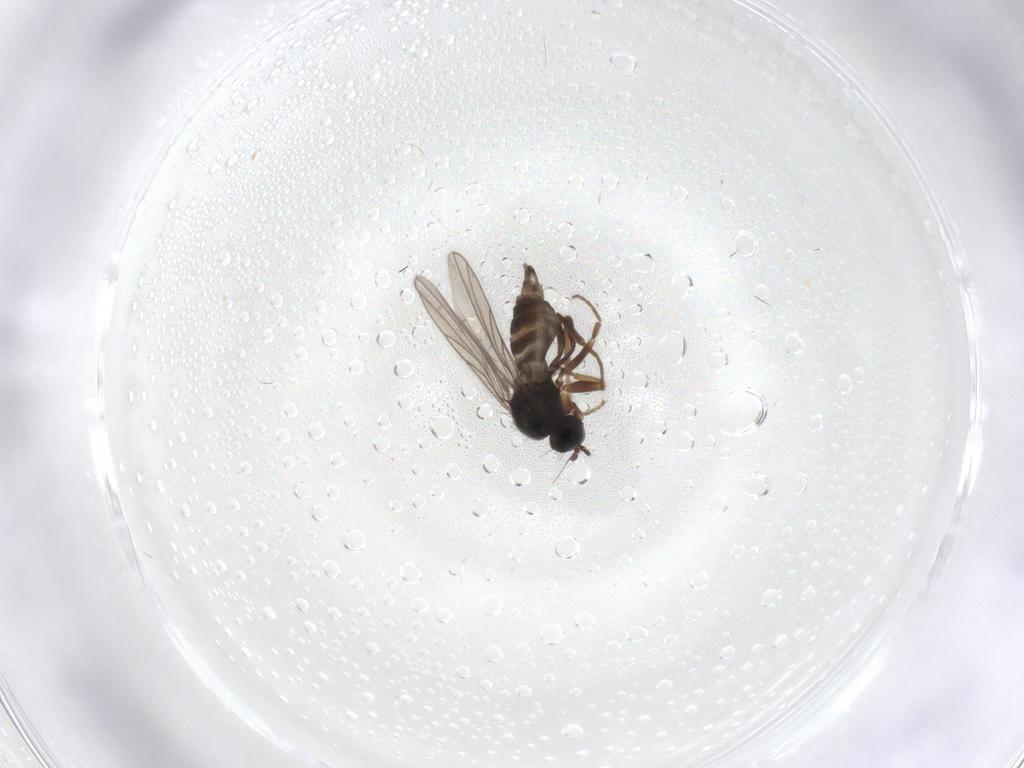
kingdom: Animalia
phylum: Arthropoda
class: Insecta
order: Diptera
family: Hybotidae
